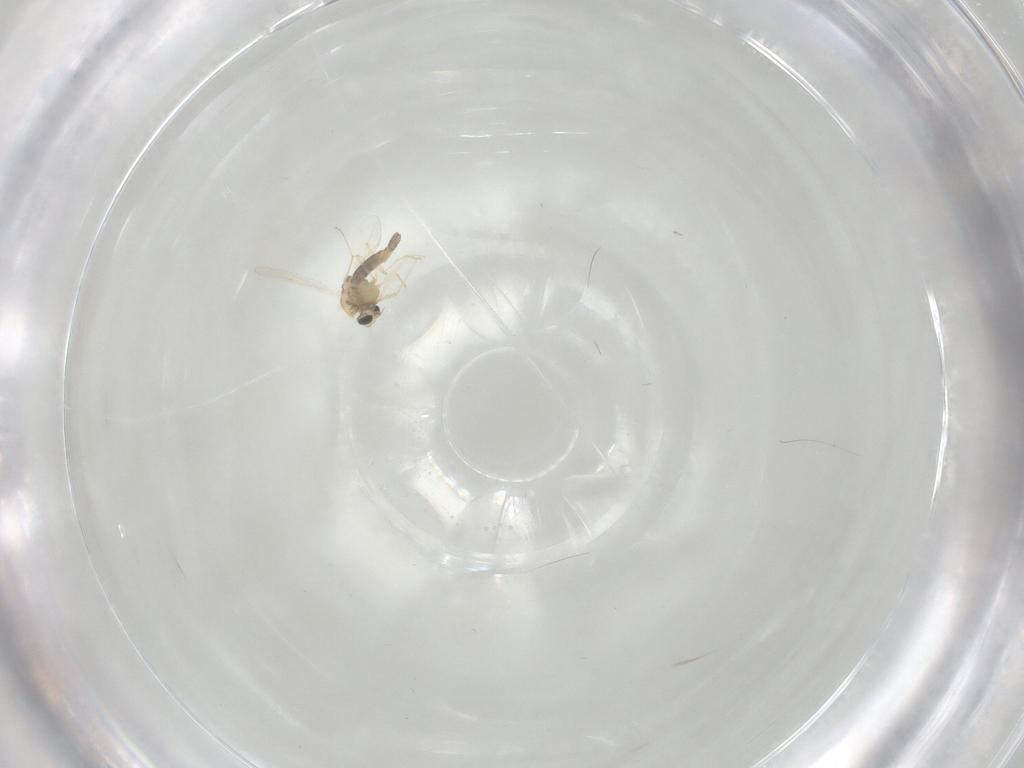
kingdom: Animalia
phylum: Arthropoda
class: Insecta
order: Diptera
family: Chironomidae
